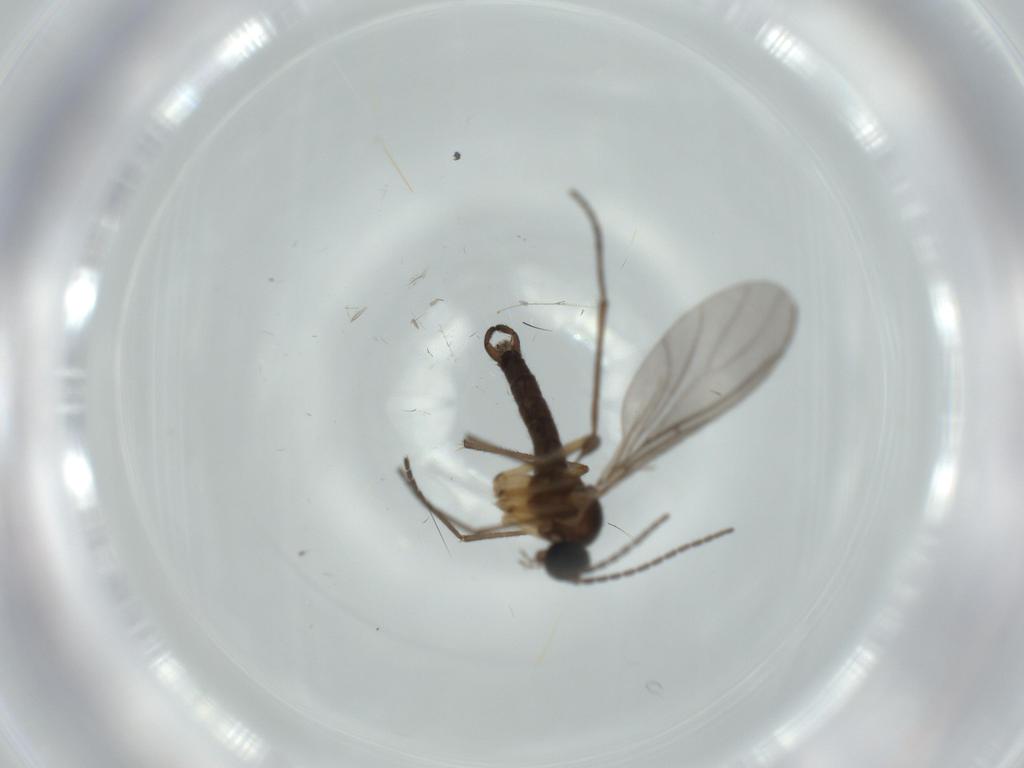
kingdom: Animalia
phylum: Arthropoda
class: Insecta
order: Diptera
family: Sciaridae
